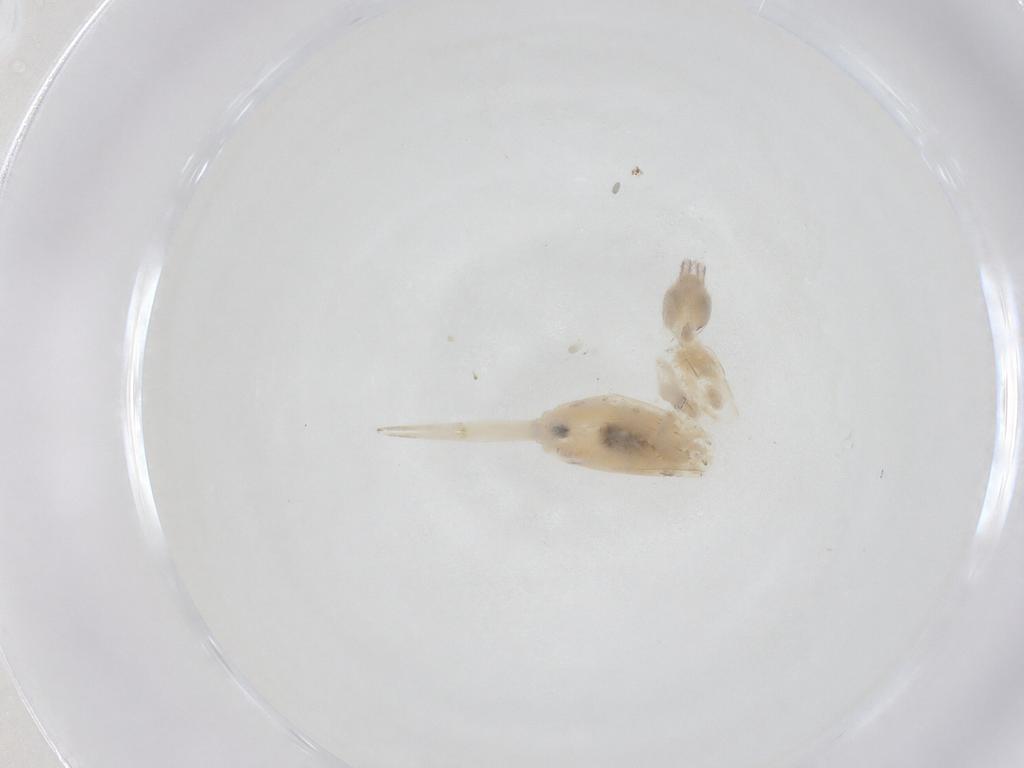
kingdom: Animalia
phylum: Arthropoda
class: Collembola
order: Entomobryomorpha
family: Entomobryidae
